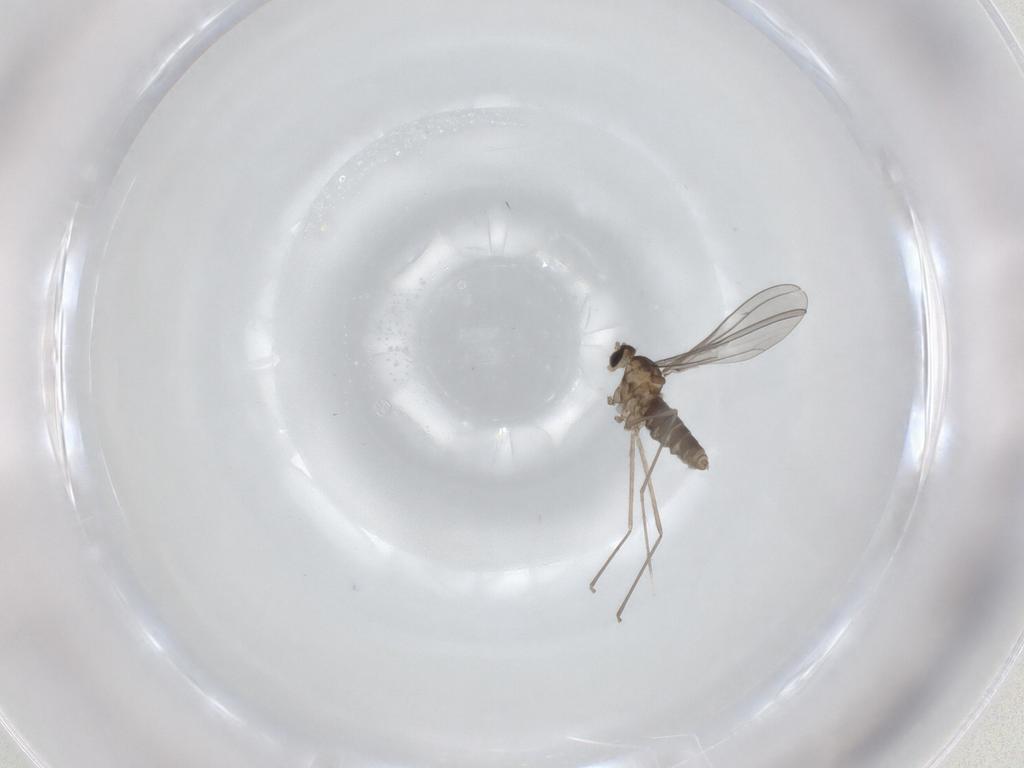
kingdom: Animalia
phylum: Arthropoda
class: Insecta
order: Diptera
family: Cecidomyiidae
